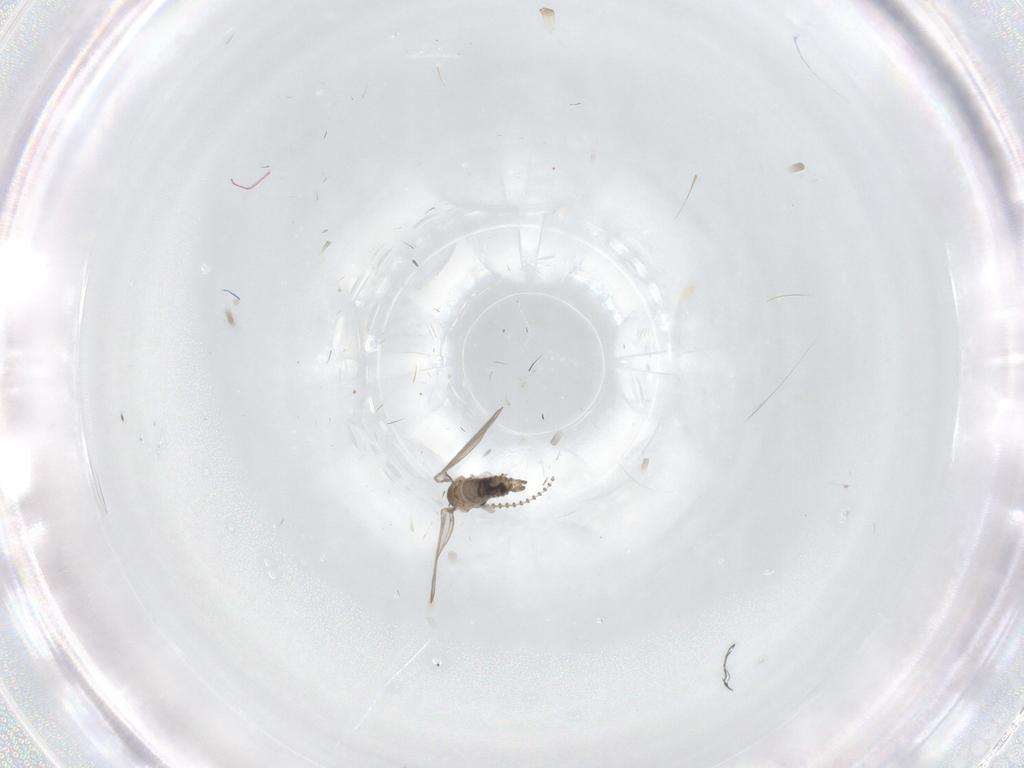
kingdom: Animalia
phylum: Arthropoda
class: Insecta
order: Diptera
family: Psychodidae
